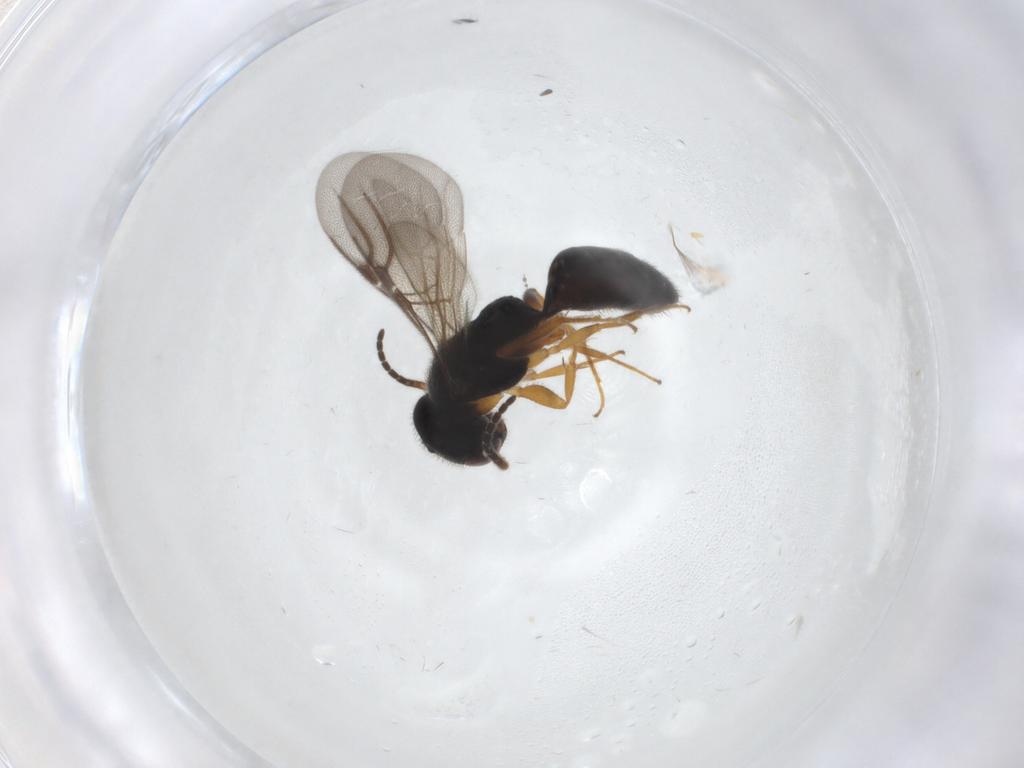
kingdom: Animalia
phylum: Arthropoda
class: Insecta
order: Hymenoptera
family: Bethylidae
